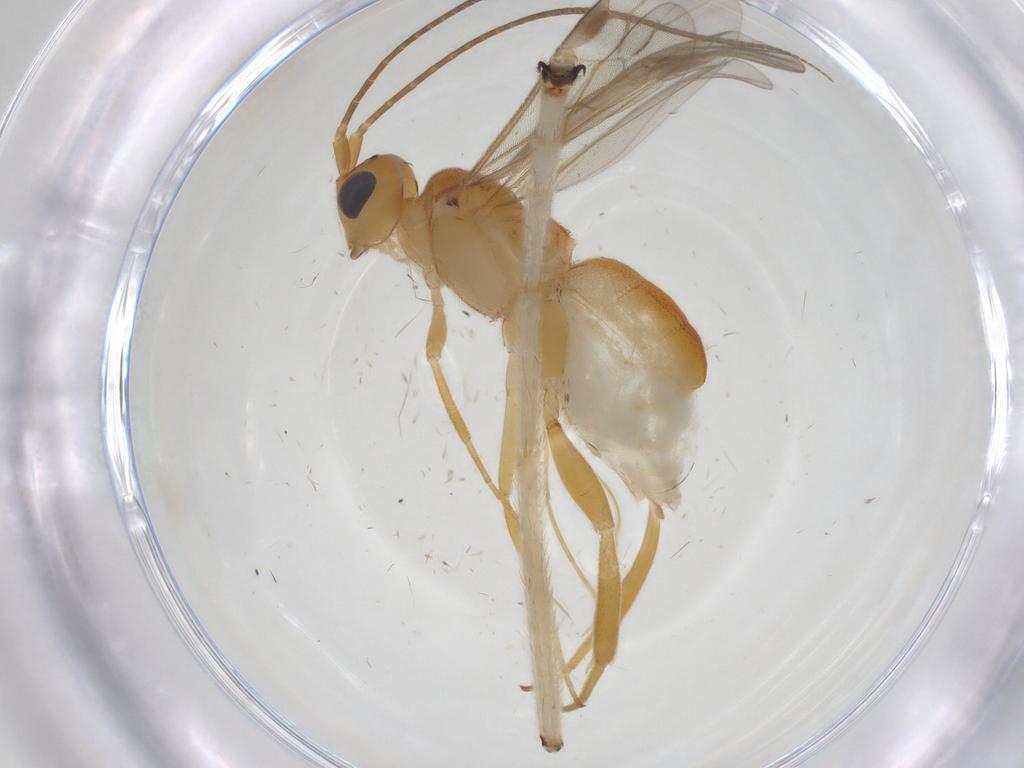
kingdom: Animalia
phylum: Arthropoda
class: Insecta
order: Hymenoptera
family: Braconidae
